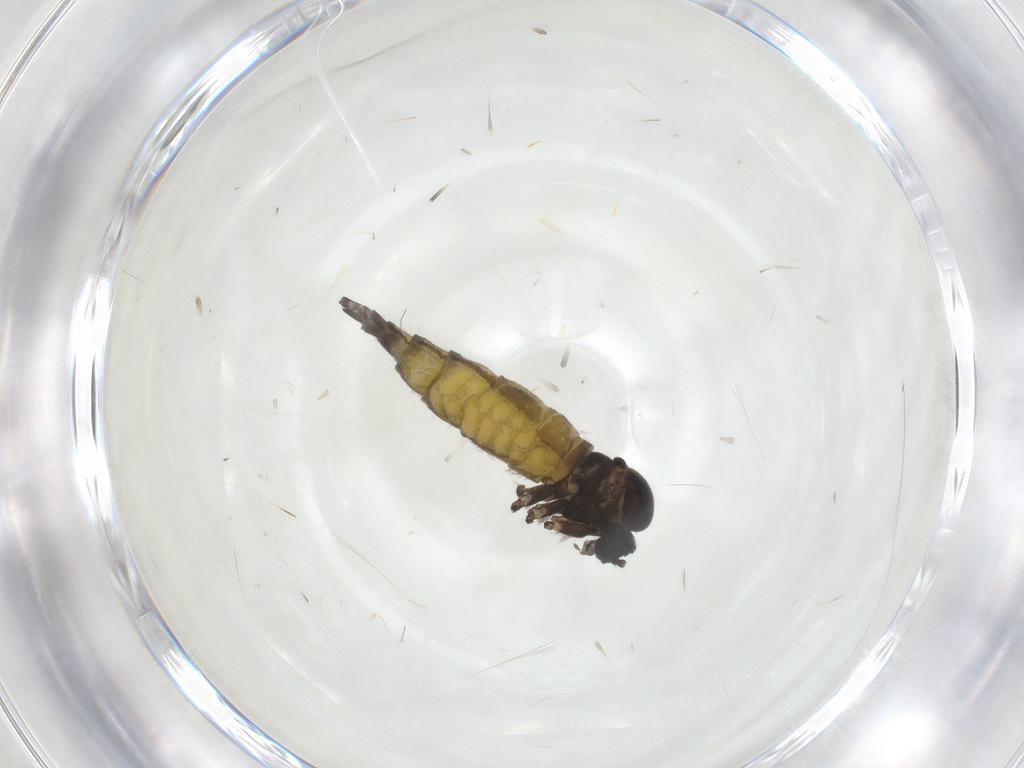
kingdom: Animalia
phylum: Arthropoda
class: Insecta
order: Diptera
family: Sciaridae
